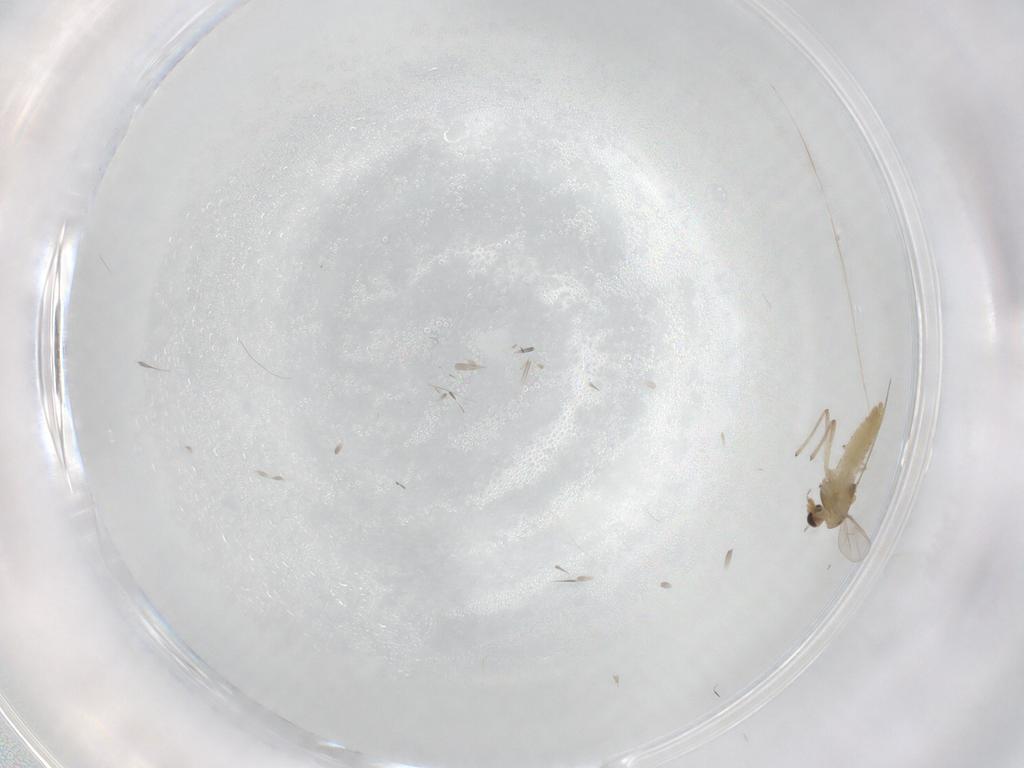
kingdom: Animalia
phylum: Arthropoda
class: Insecta
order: Diptera
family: Chironomidae
